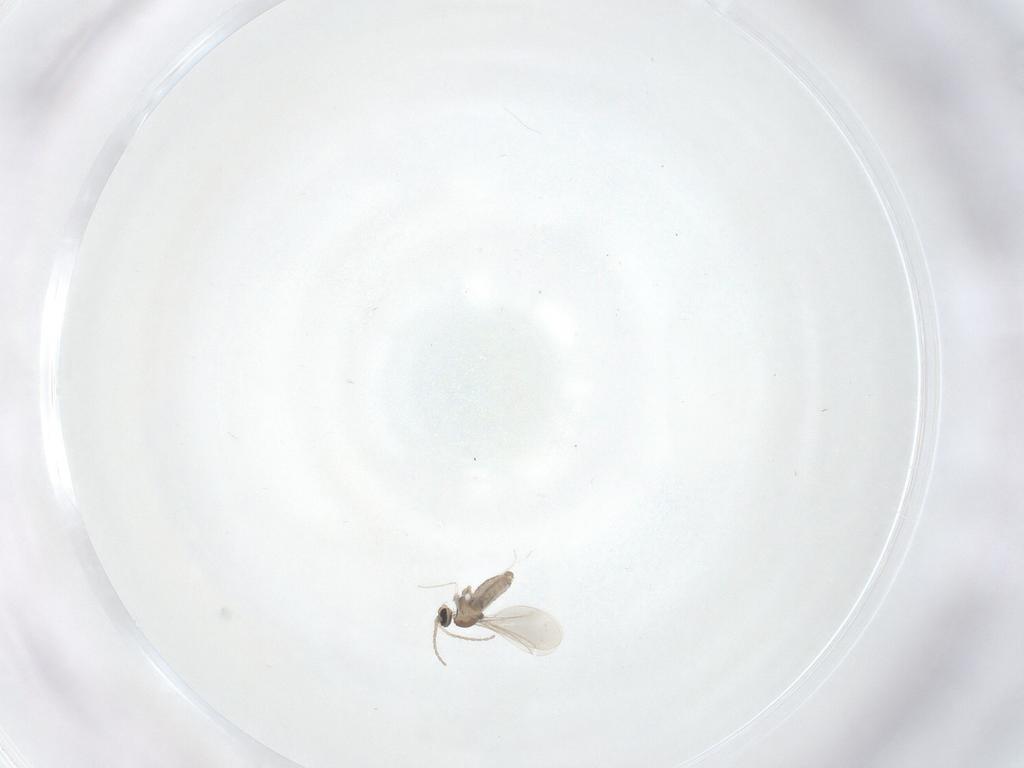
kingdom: Animalia
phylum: Arthropoda
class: Insecta
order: Diptera
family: Cecidomyiidae
